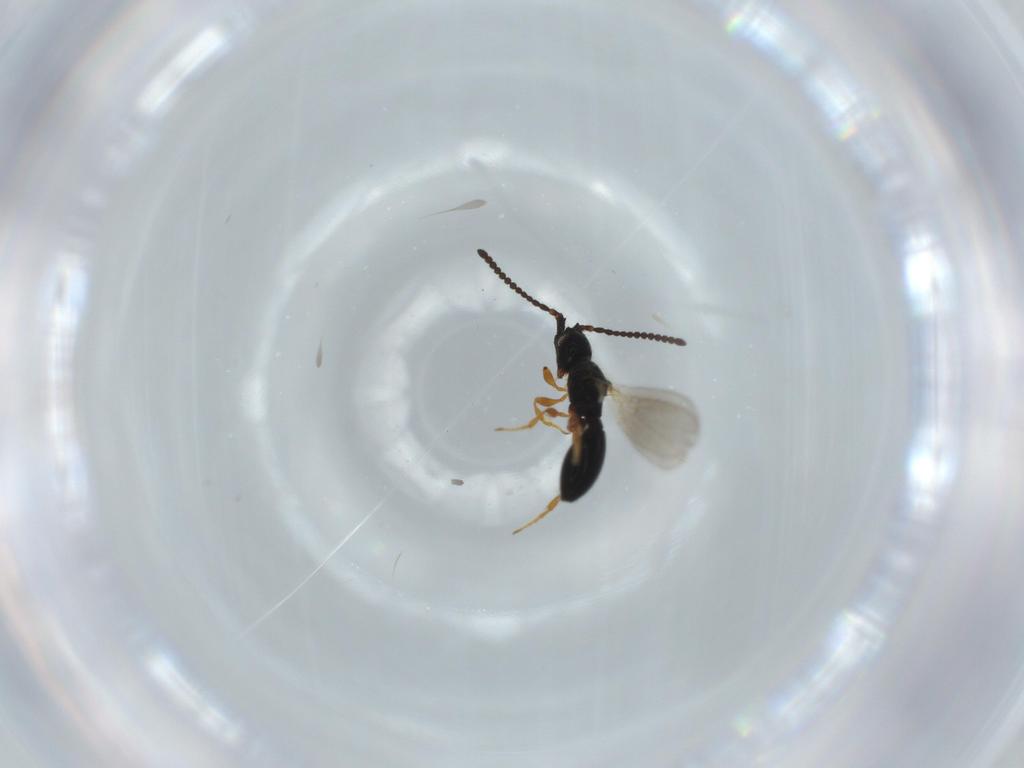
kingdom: Animalia
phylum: Arthropoda
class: Insecta
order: Hymenoptera
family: Diapriidae
